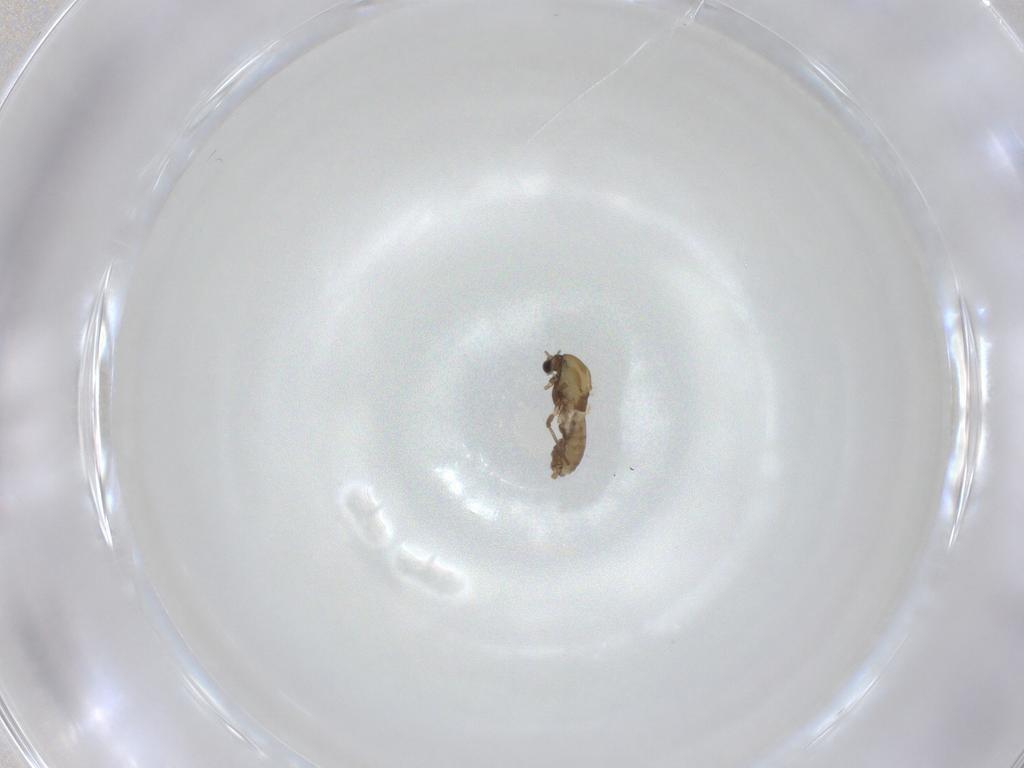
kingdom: Animalia
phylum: Arthropoda
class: Insecta
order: Diptera
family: Chironomidae
